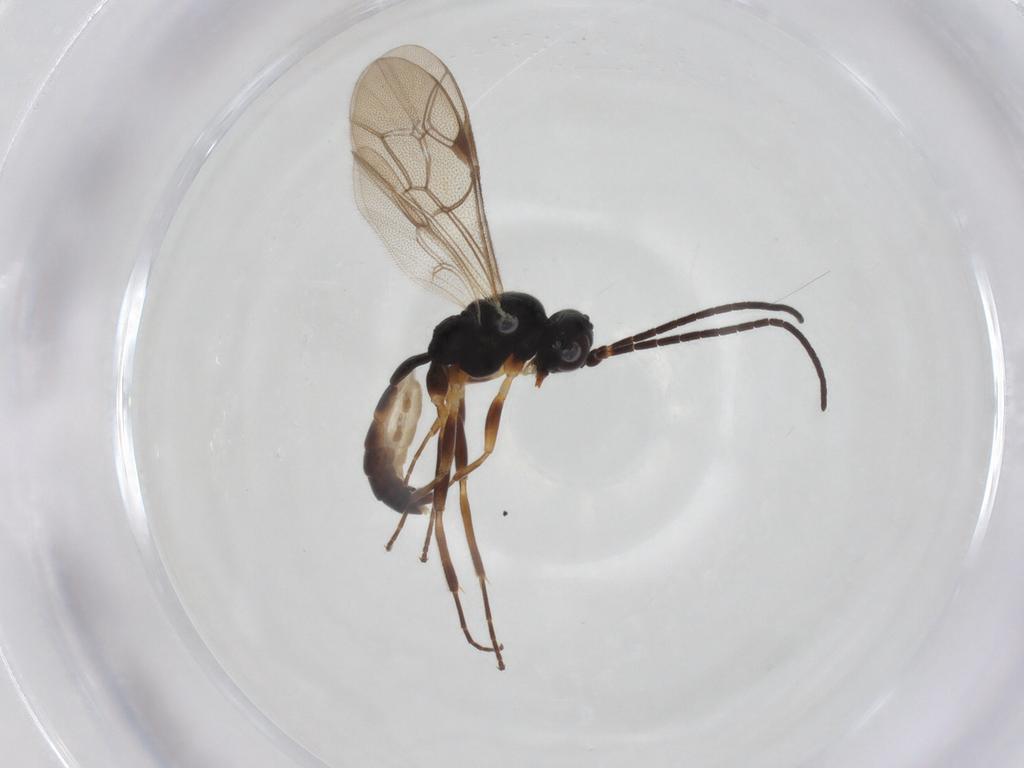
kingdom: Animalia
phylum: Arthropoda
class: Insecta
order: Hymenoptera
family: Ichneumonidae
